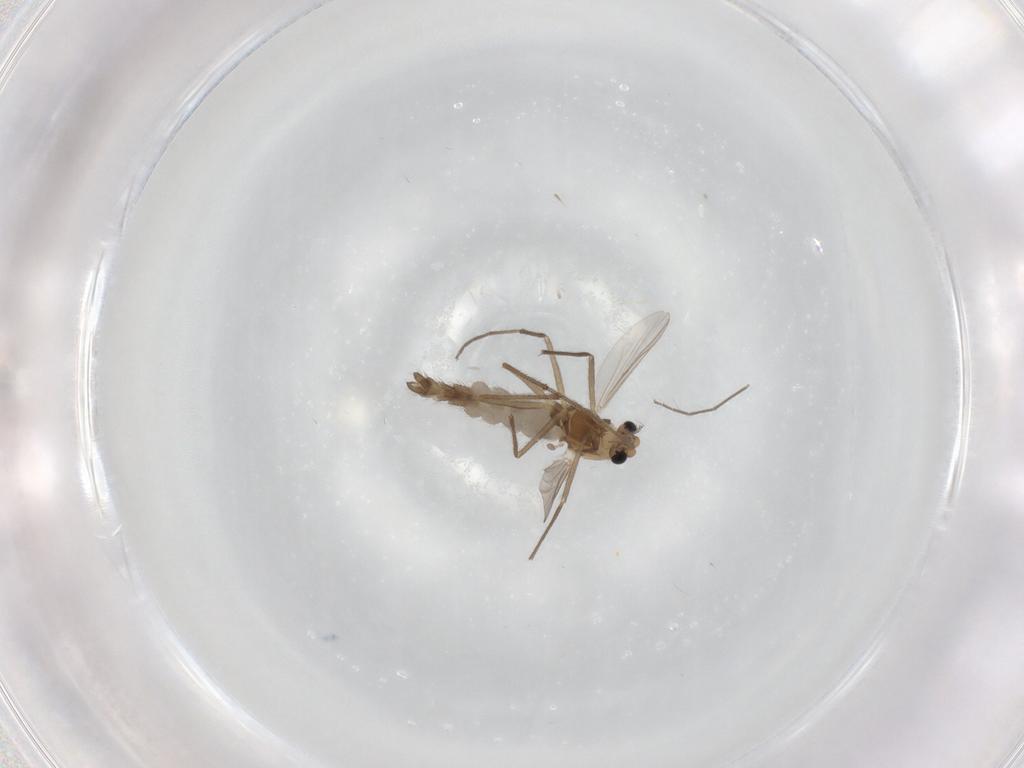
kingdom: Animalia
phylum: Arthropoda
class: Insecta
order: Diptera
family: Chironomidae
